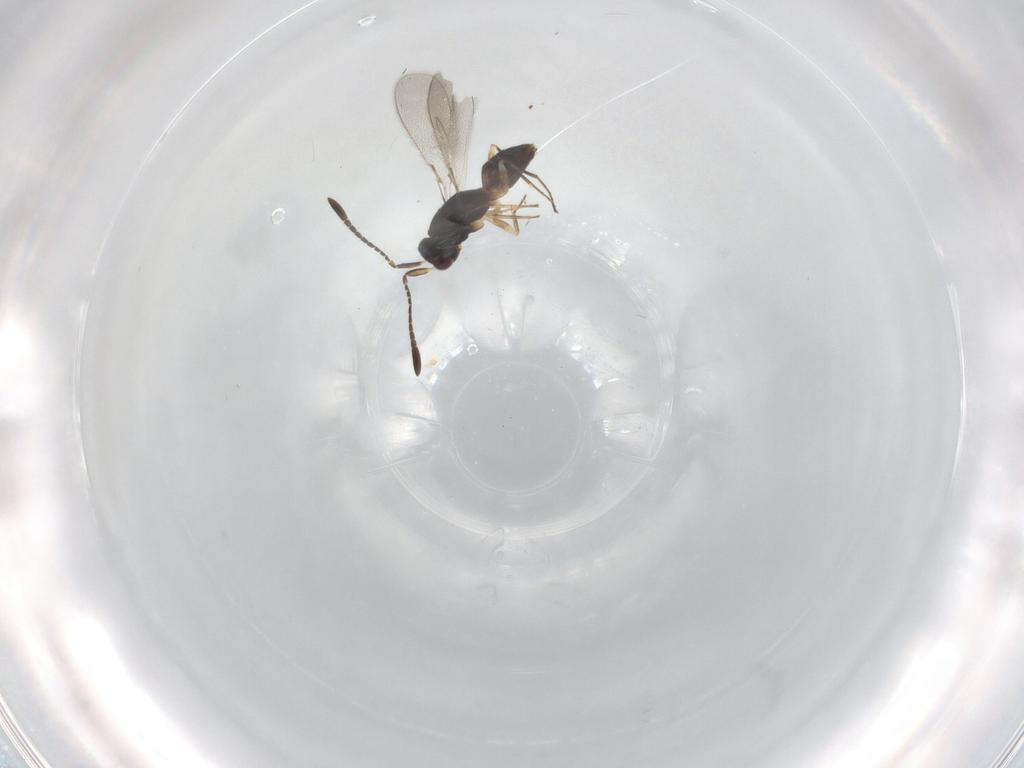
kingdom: Animalia
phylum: Arthropoda
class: Insecta
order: Hymenoptera
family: Mymaridae
